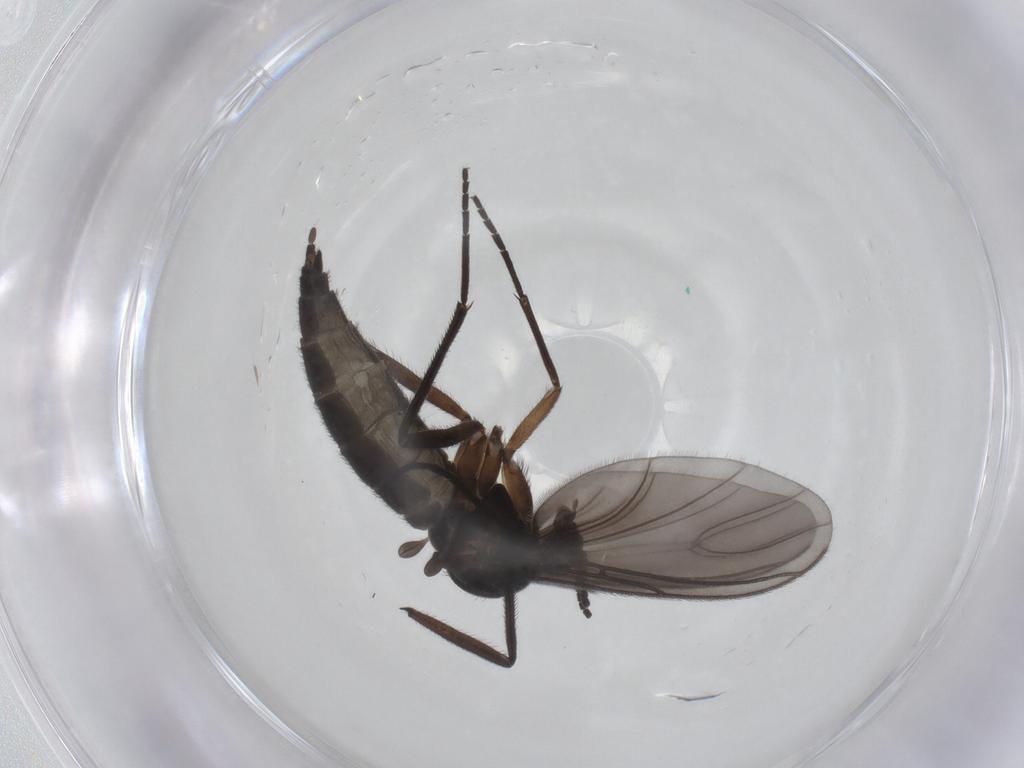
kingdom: Animalia
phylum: Arthropoda
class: Insecta
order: Diptera
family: Sciaridae
